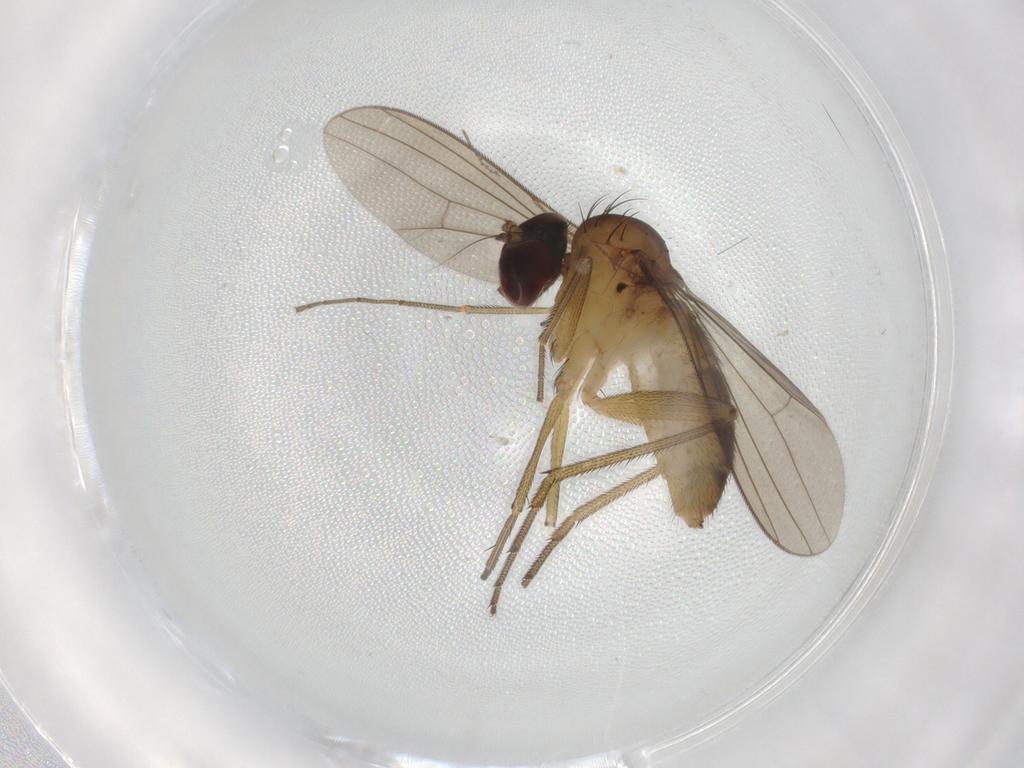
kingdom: Animalia
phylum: Arthropoda
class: Insecta
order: Diptera
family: Dolichopodidae
